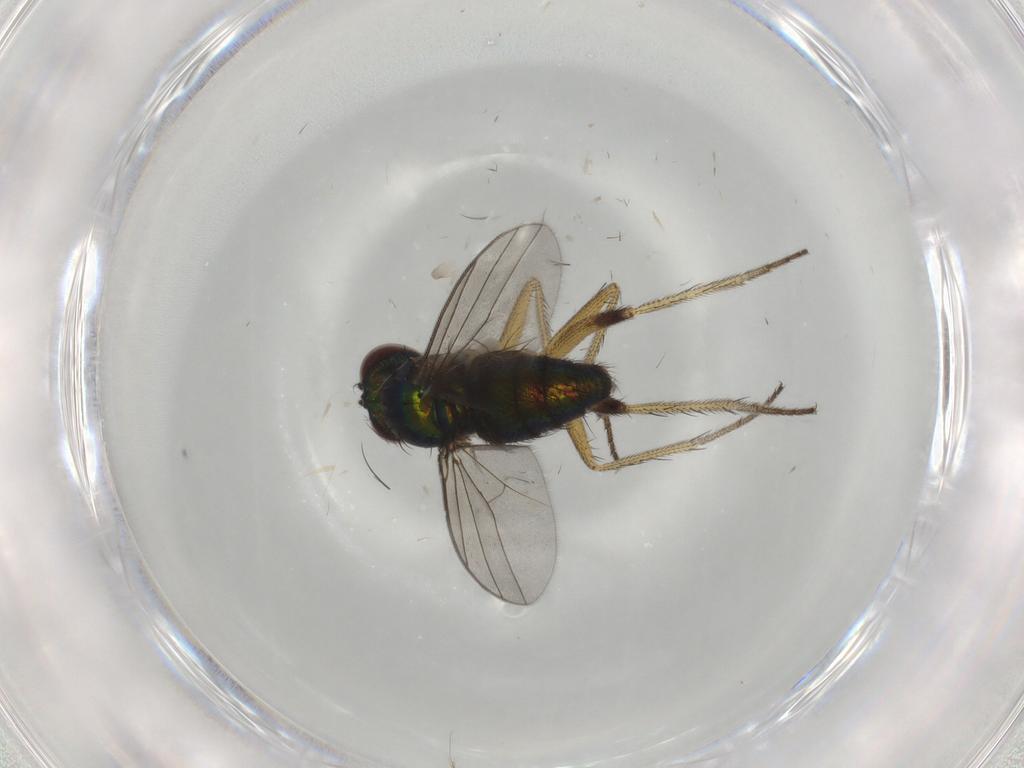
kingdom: Animalia
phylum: Arthropoda
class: Insecta
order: Diptera
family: Dolichopodidae
